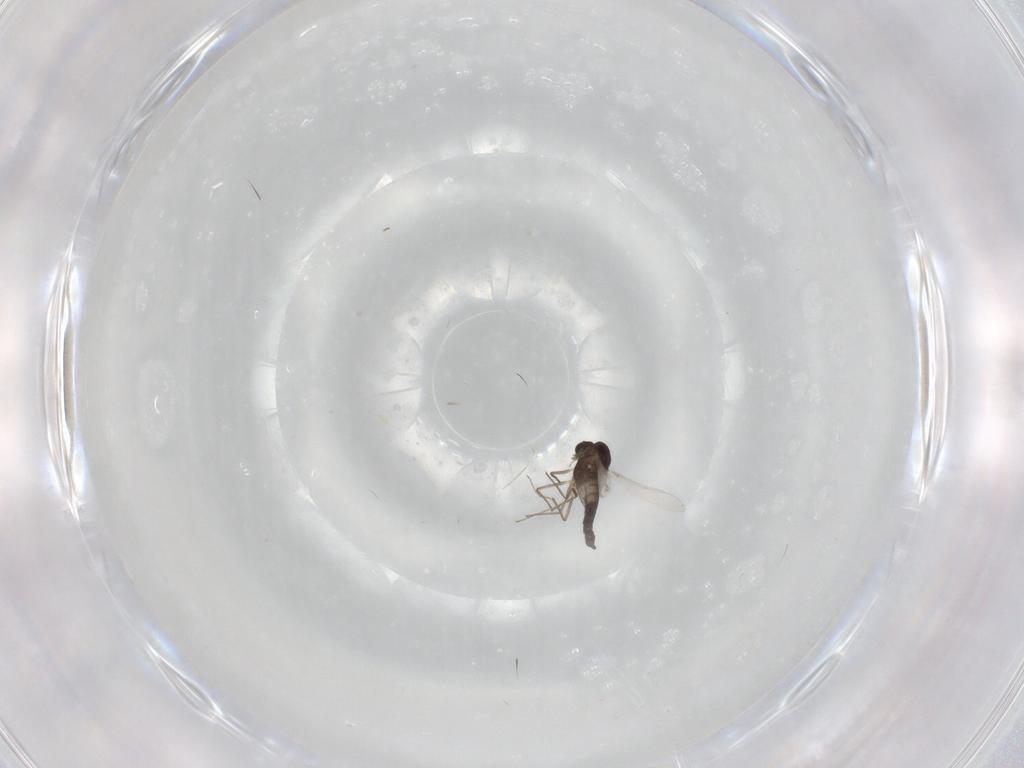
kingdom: Animalia
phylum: Arthropoda
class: Insecta
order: Diptera
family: Chironomidae
